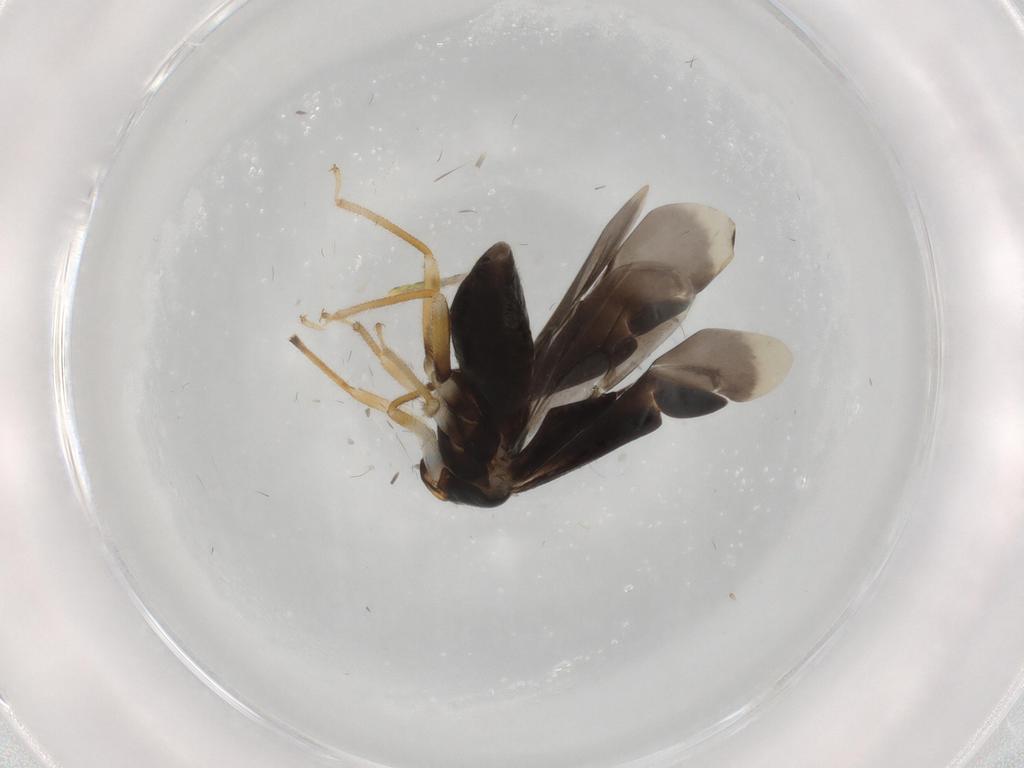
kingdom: Animalia
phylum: Arthropoda
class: Insecta
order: Hemiptera
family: Miridae
